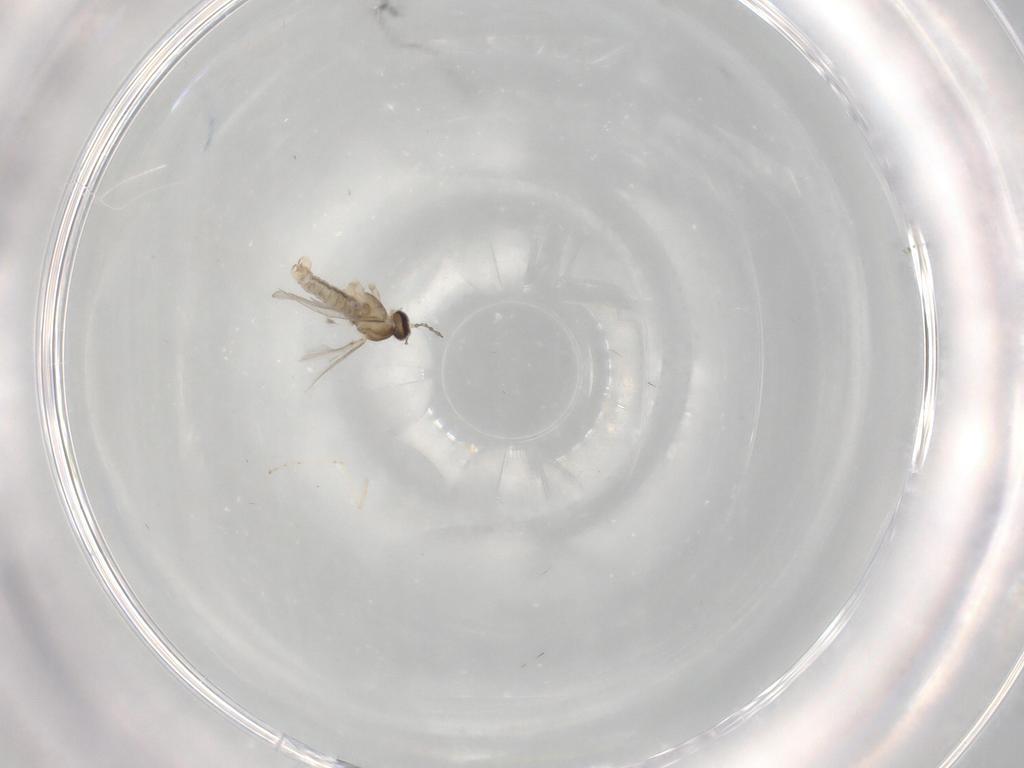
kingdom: Animalia
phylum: Arthropoda
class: Insecta
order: Diptera
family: Cecidomyiidae
